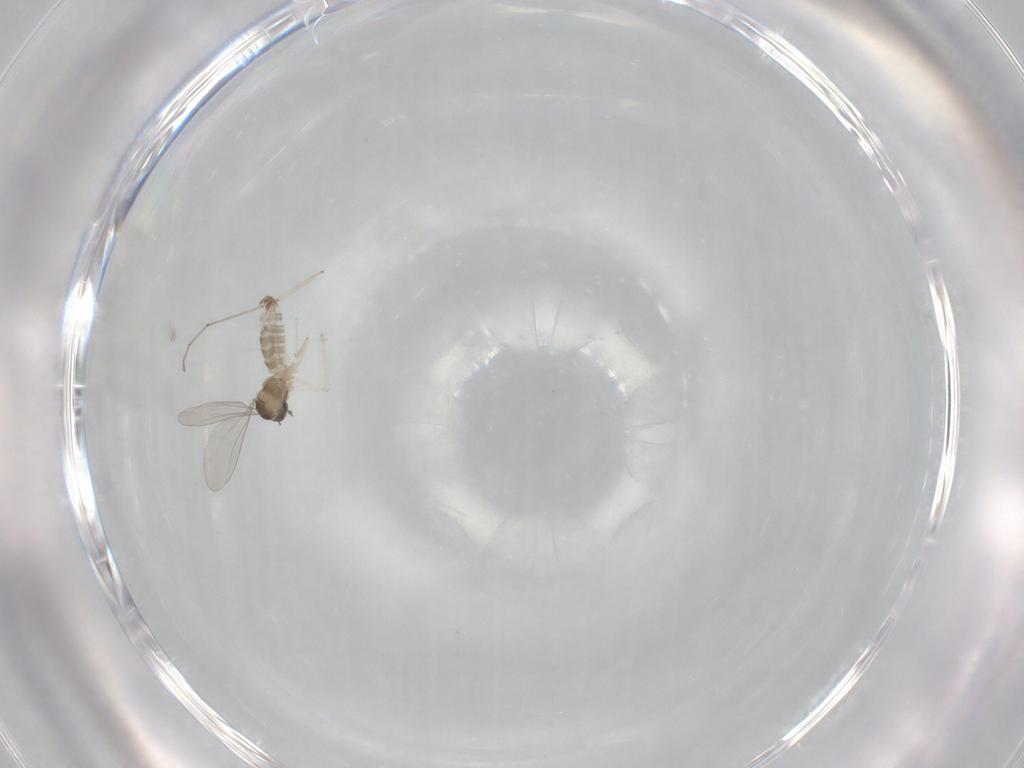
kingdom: Animalia
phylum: Arthropoda
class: Insecta
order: Diptera
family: Cecidomyiidae
